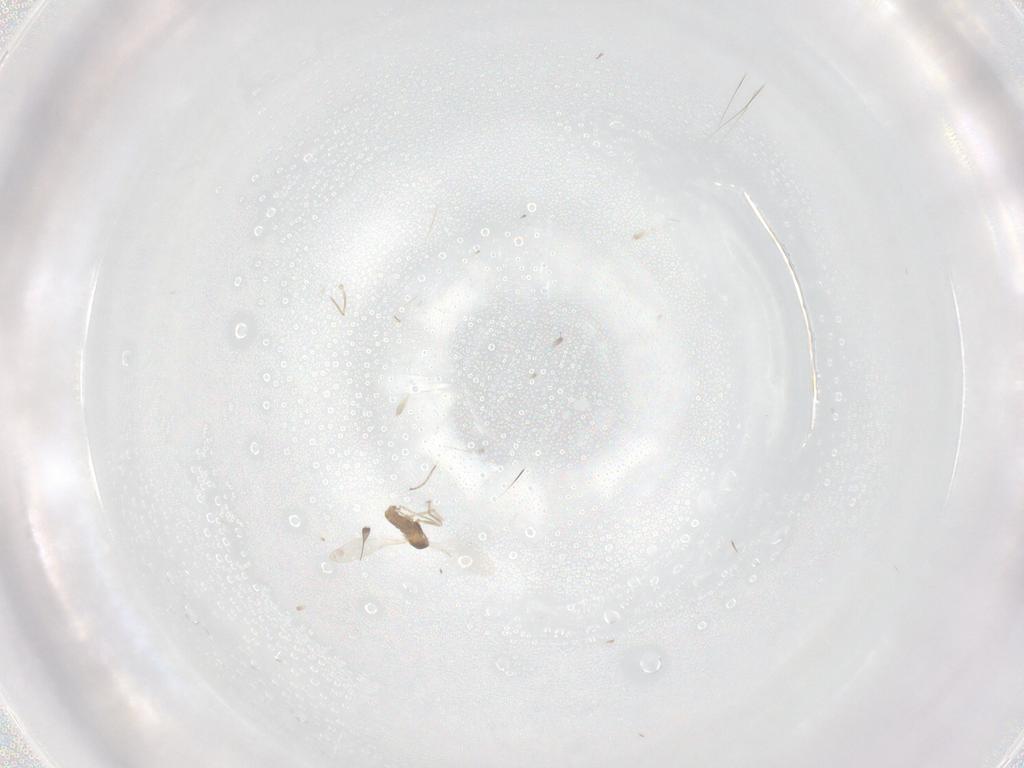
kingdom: Animalia
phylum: Arthropoda
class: Insecta
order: Diptera
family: Cecidomyiidae
